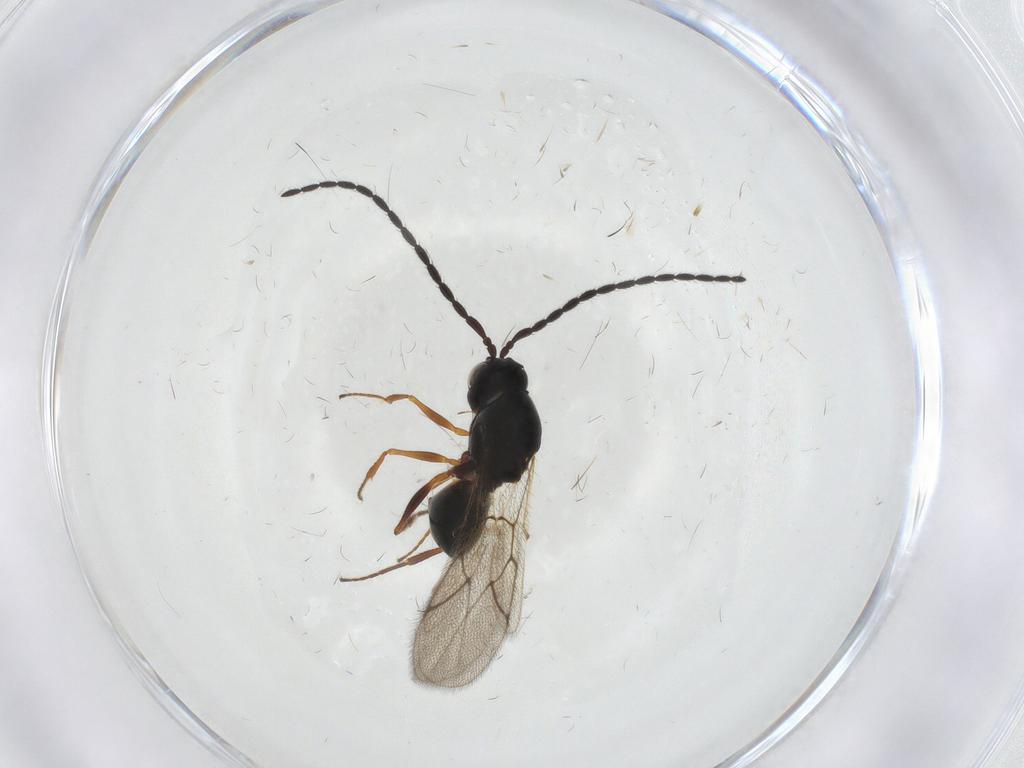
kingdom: Animalia
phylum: Arthropoda
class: Insecta
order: Hymenoptera
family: Figitidae
